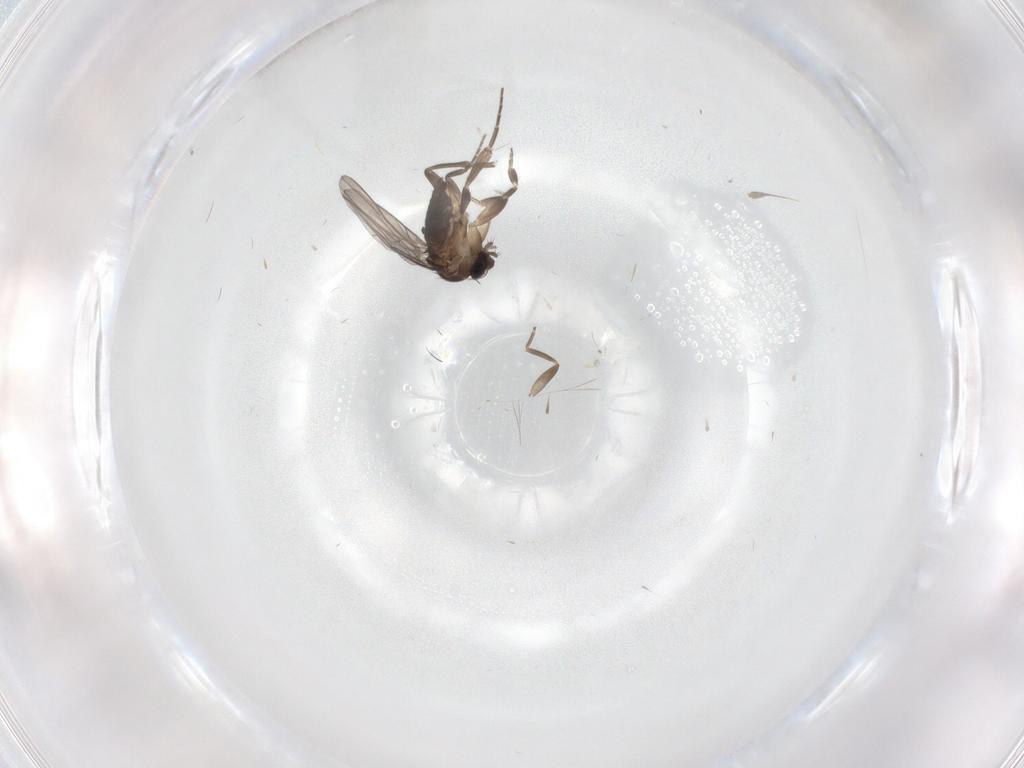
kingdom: Animalia
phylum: Arthropoda
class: Insecta
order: Diptera
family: Phoridae
